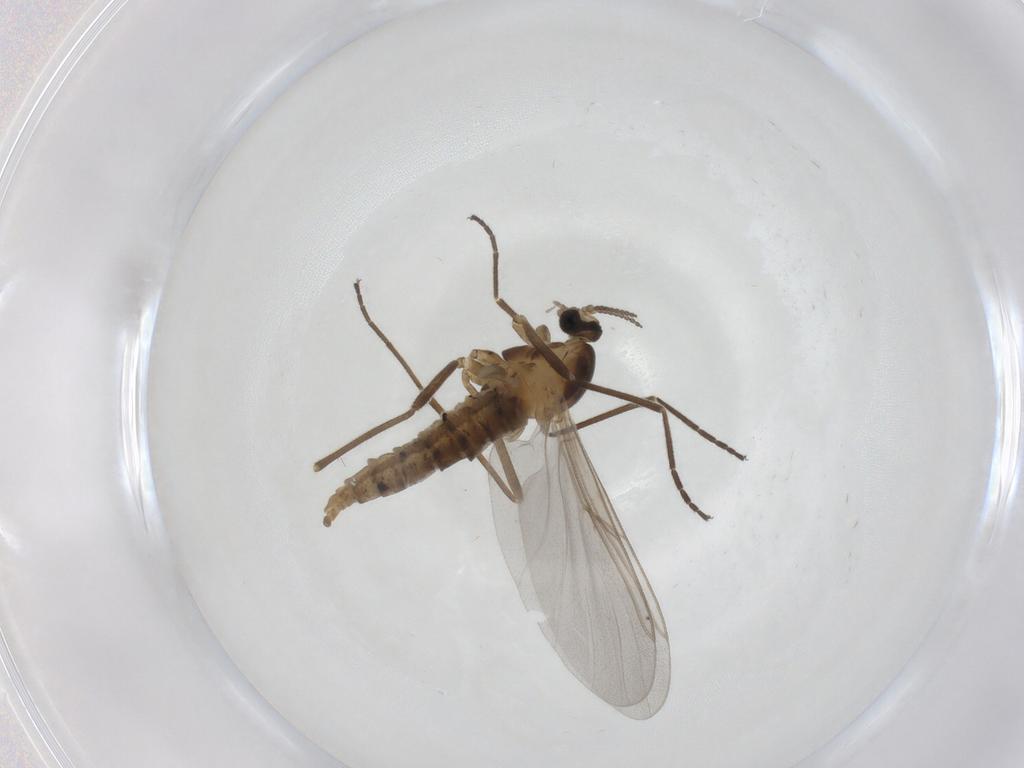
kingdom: Animalia
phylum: Arthropoda
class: Insecta
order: Diptera
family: Cecidomyiidae
